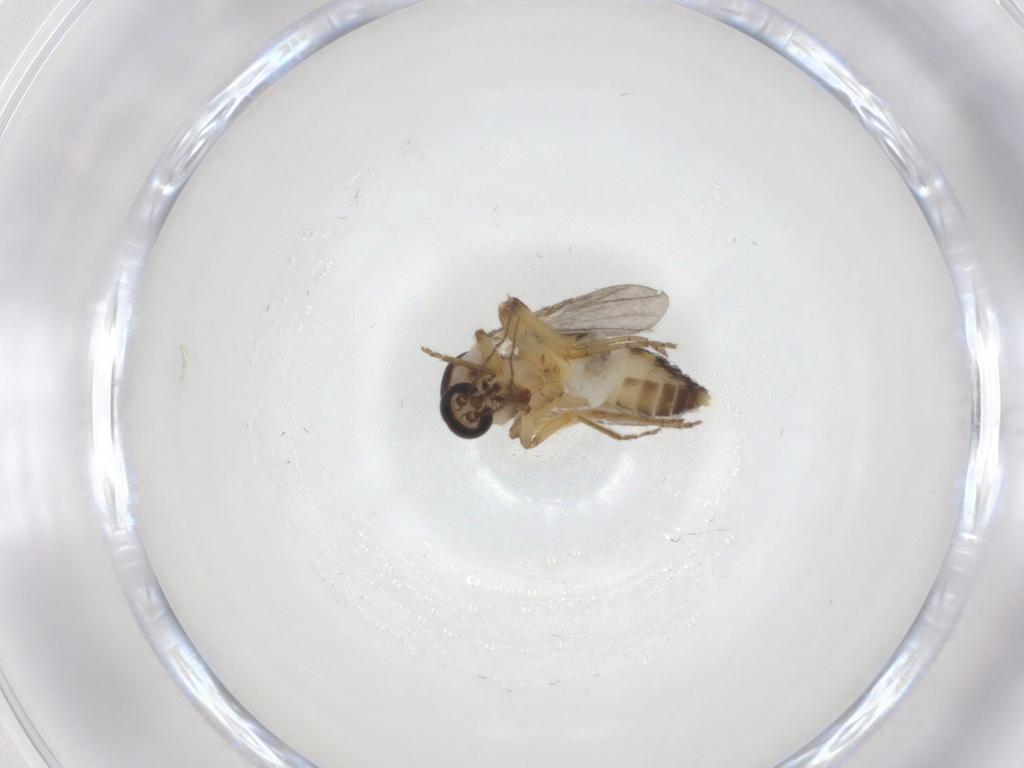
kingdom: Animalia
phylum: Arthropoda
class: Insecta
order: Diptera
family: Ceratopogonidae
